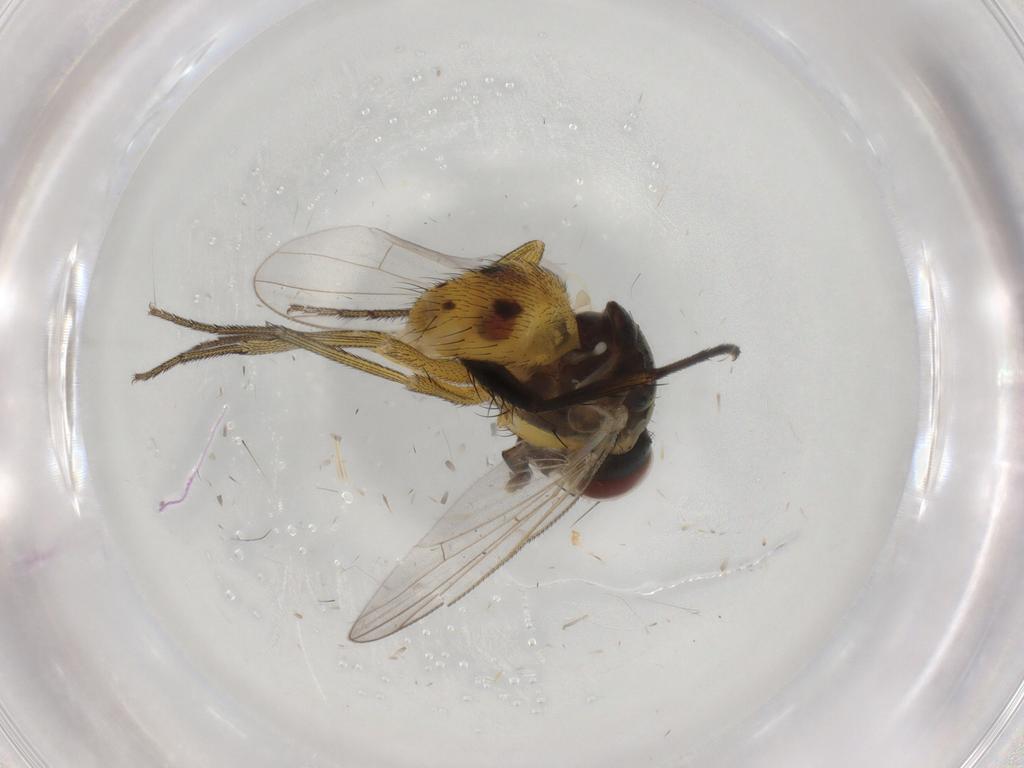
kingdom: Animalia
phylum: Arthropoda
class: Insecta
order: Diptera
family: Muscidae
